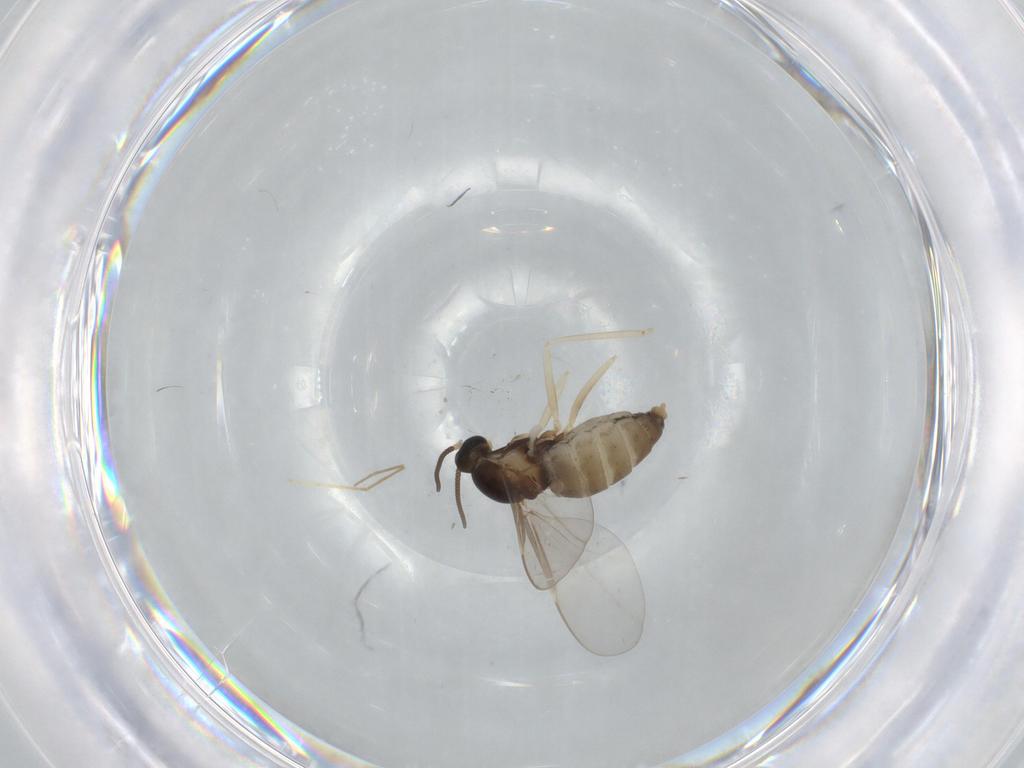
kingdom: Animalia
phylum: Arthropoda
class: Insecta
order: Diptera
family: Cecidomyiidae
